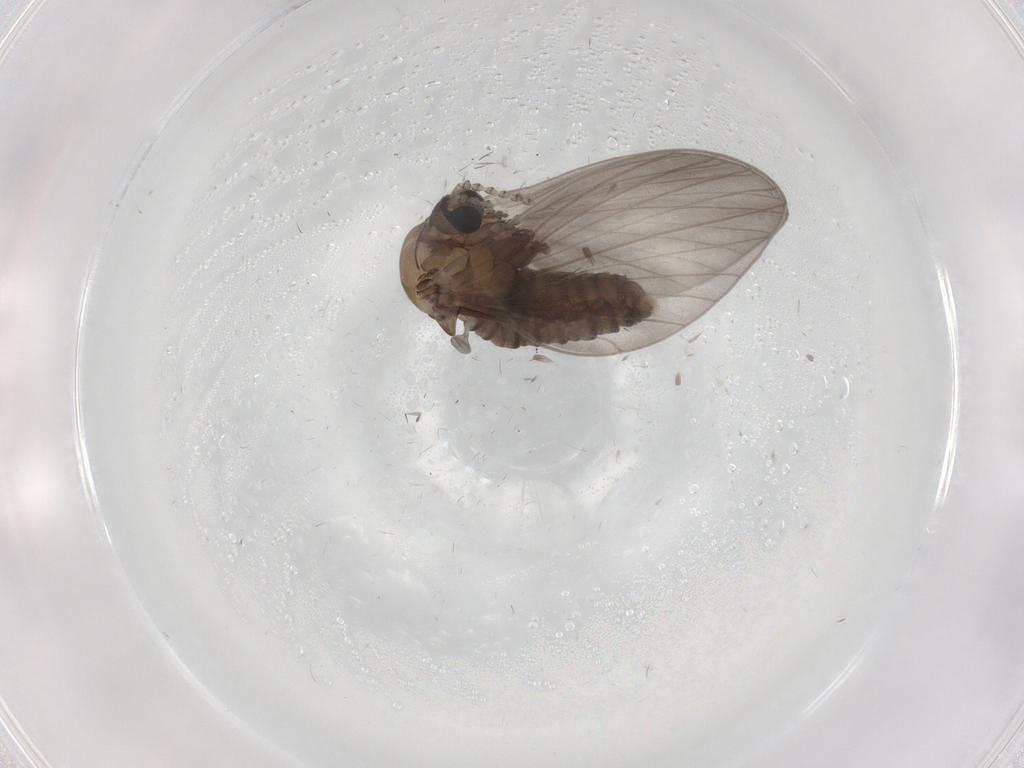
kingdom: Animalia
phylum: Arthropoda
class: Insecta
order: Diptera
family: Psychodidae
